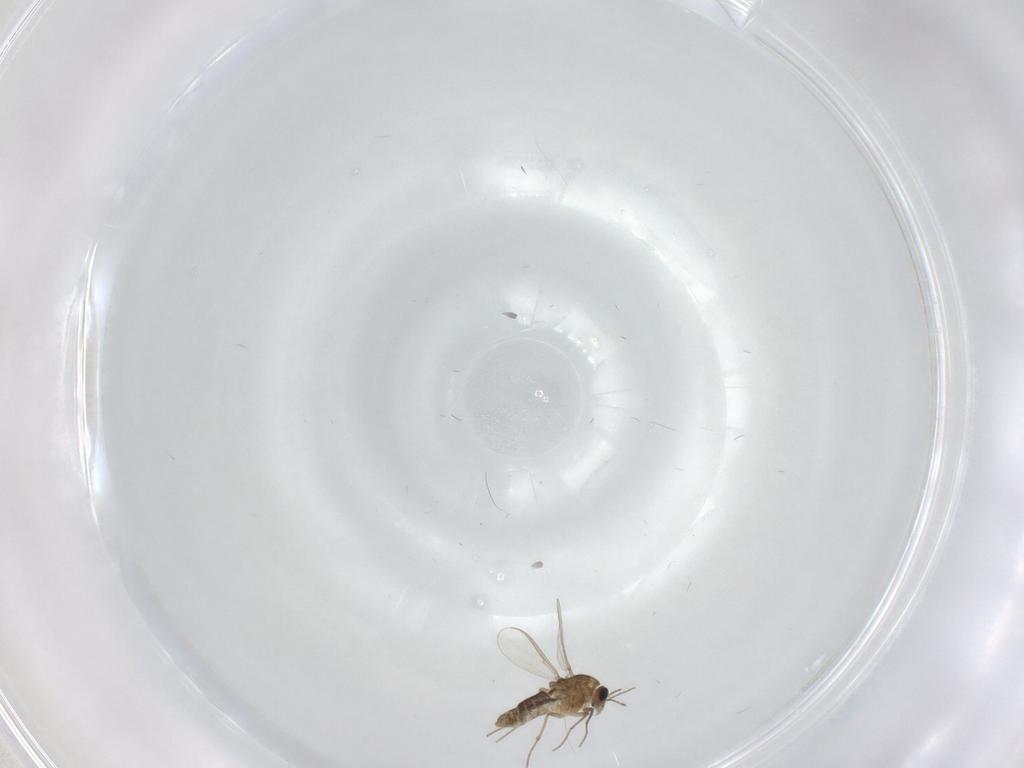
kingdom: Animalia
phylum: Arthropoda
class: Insecta
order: Diptera
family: Chironomidae
